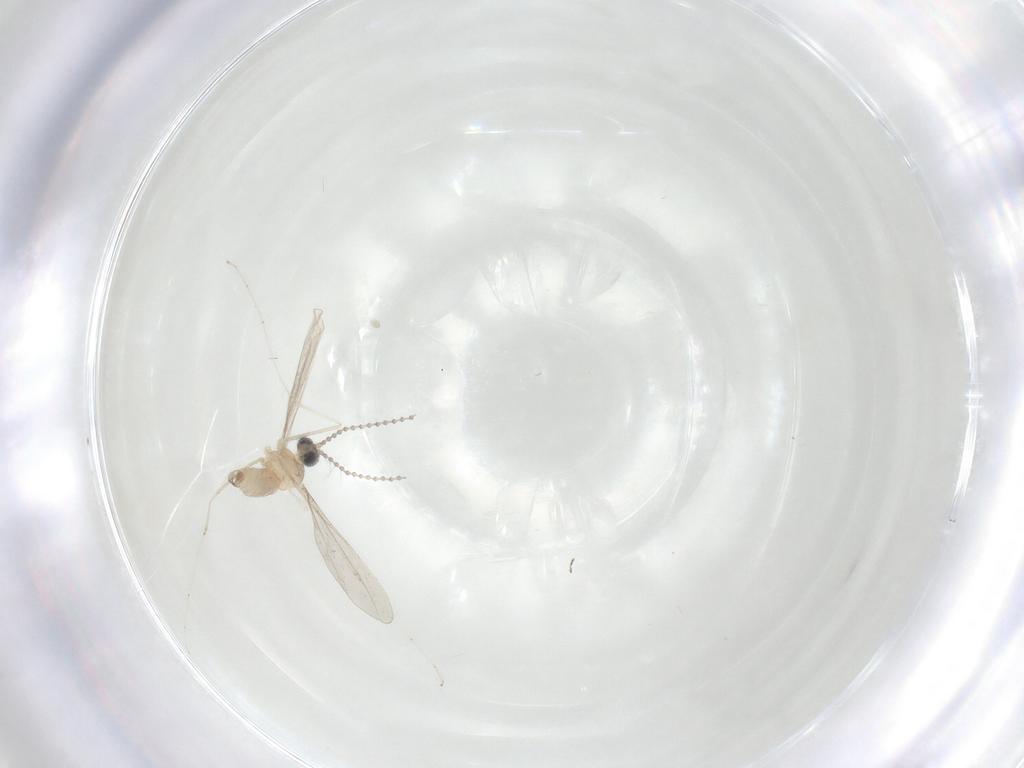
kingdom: Animalia
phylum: Arthropoda
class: Insecta
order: Diptera
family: Cecidomyiidae
